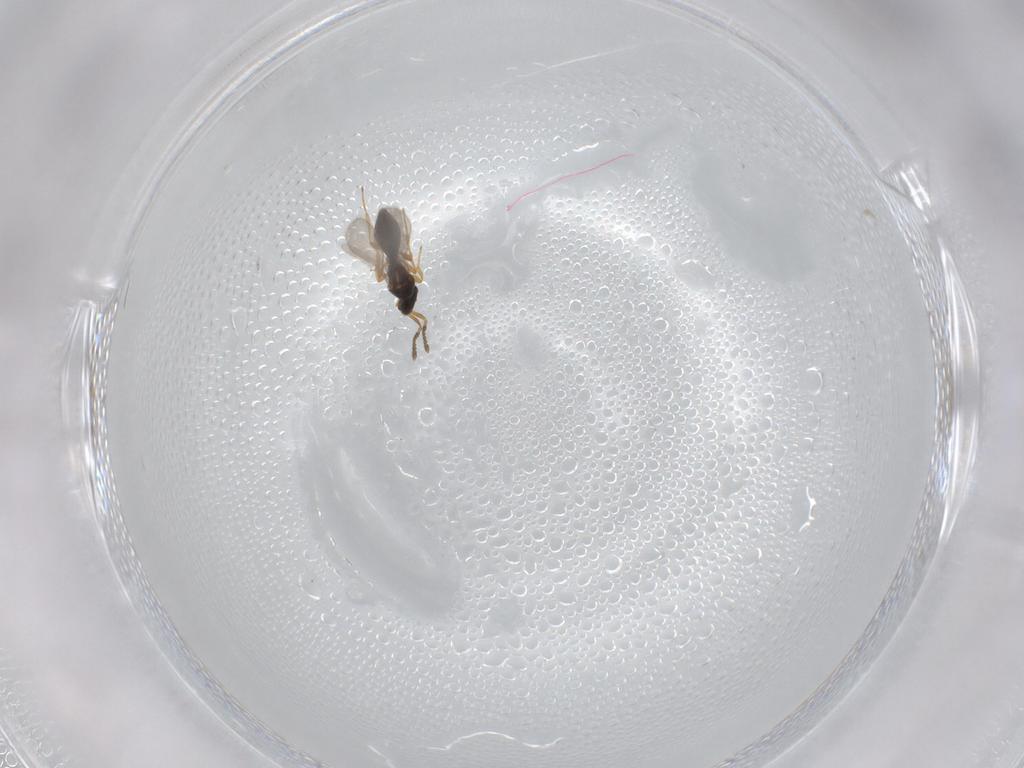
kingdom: Animalia
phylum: Arthropoda
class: Insecta
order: Hymenoptera
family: Platygastridae
